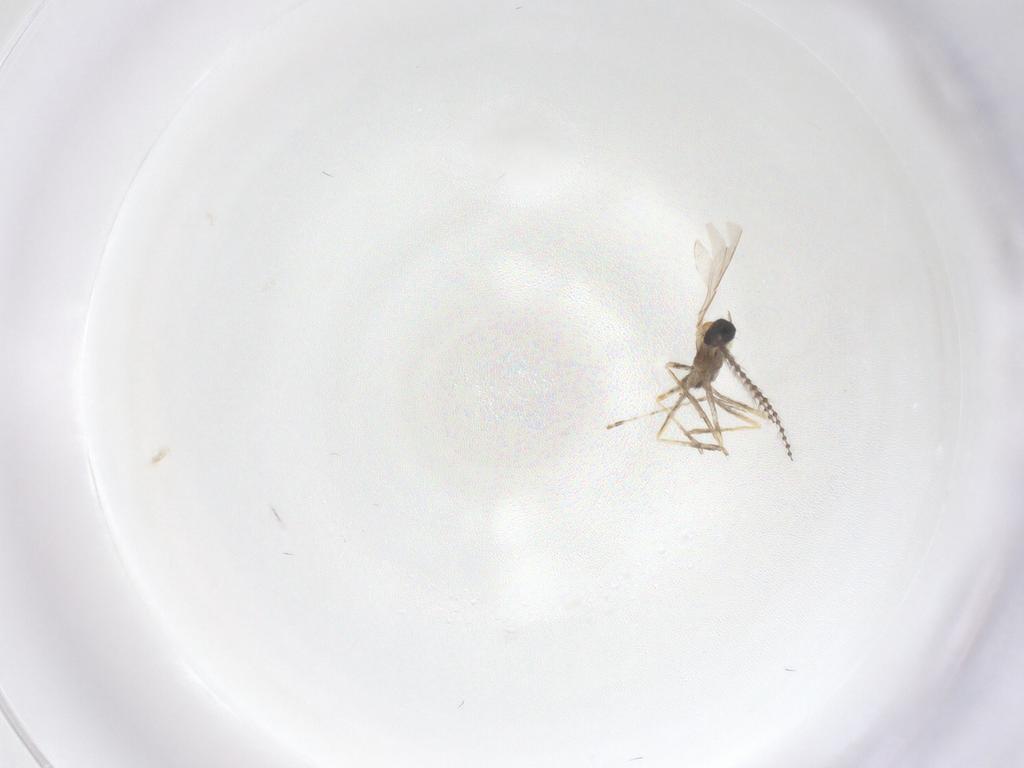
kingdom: Animalia
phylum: Arthropoda
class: Insecta
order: Diptera
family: Cecidomyiidae
